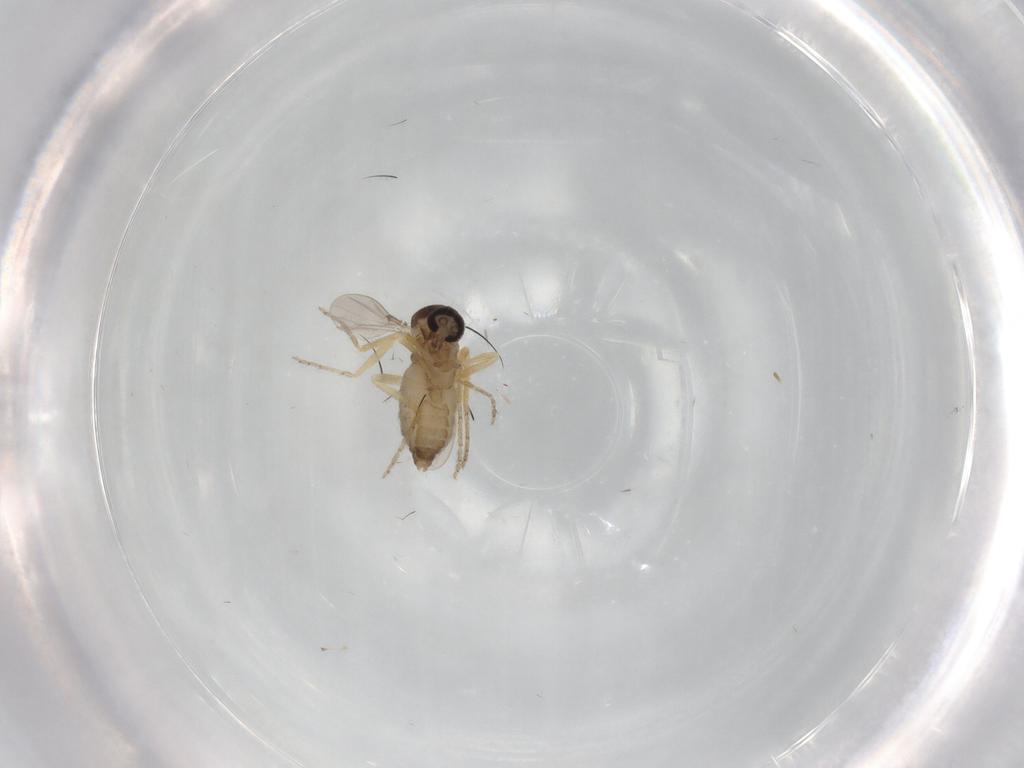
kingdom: Animalia
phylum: Arthropoda
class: Insecta
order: Diptera
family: Ceratopogonidae
